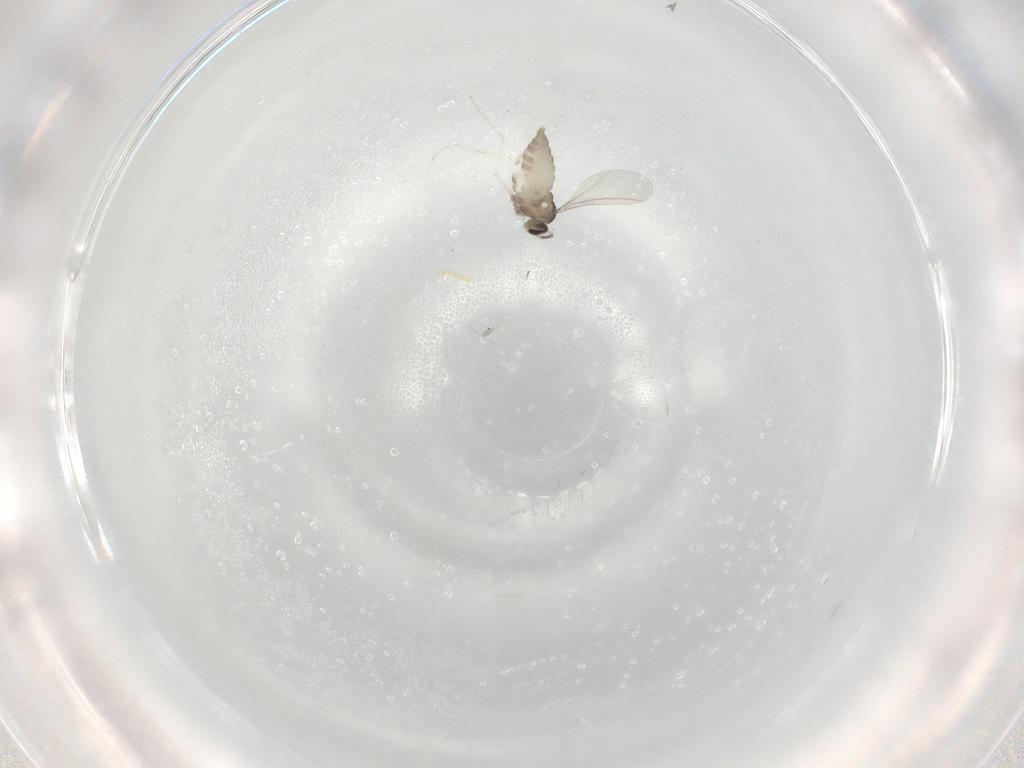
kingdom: Animalia
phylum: Arthropoda
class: Insecta
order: Diptera
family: Cecidomyiidae
